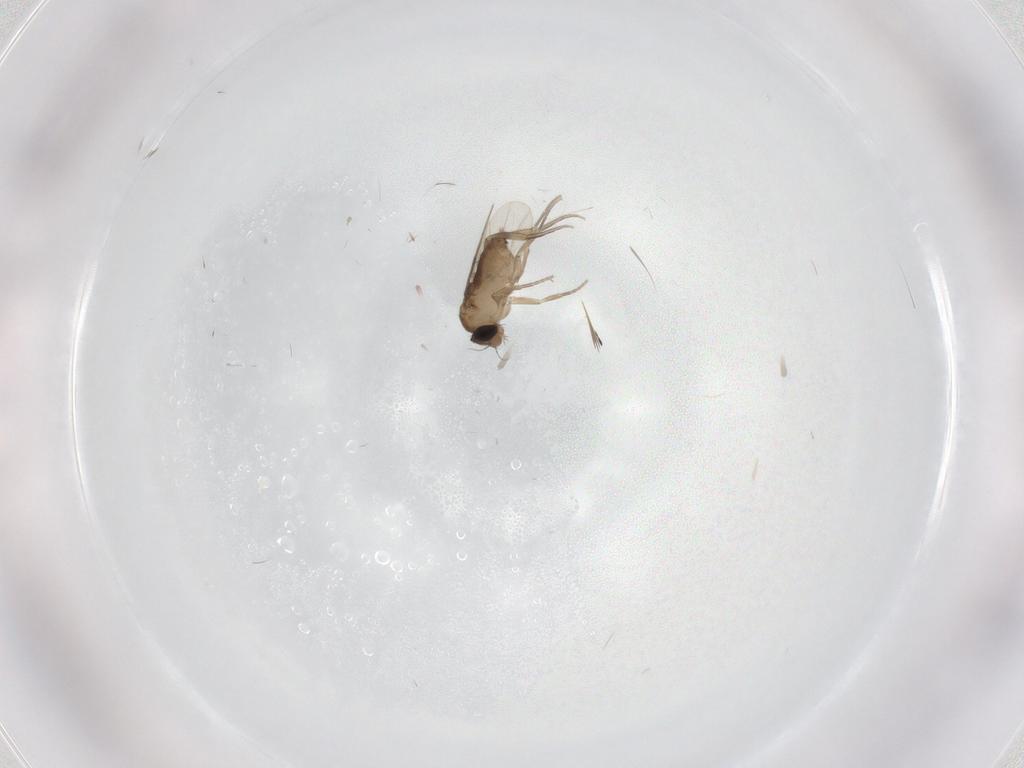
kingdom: Animalia
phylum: Arthropoda
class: Insecta
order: Diptera
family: Phoridae
